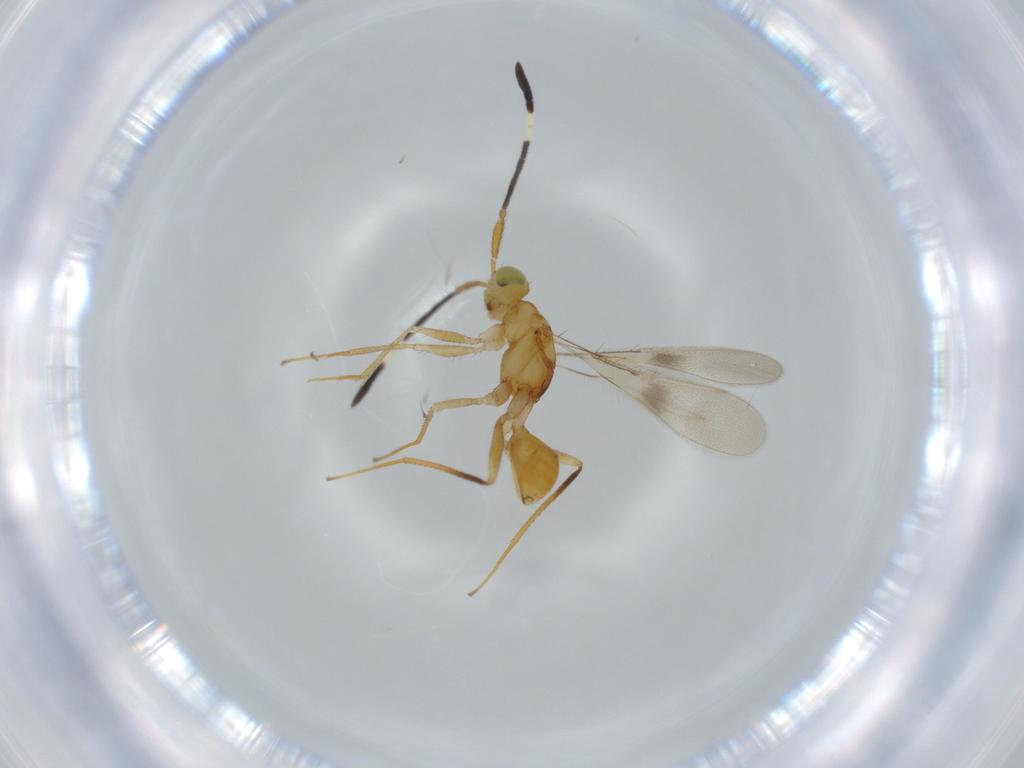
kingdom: Animalia
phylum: Arthropoda
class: Insecta
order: Hymenoptera
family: Mymaridae
